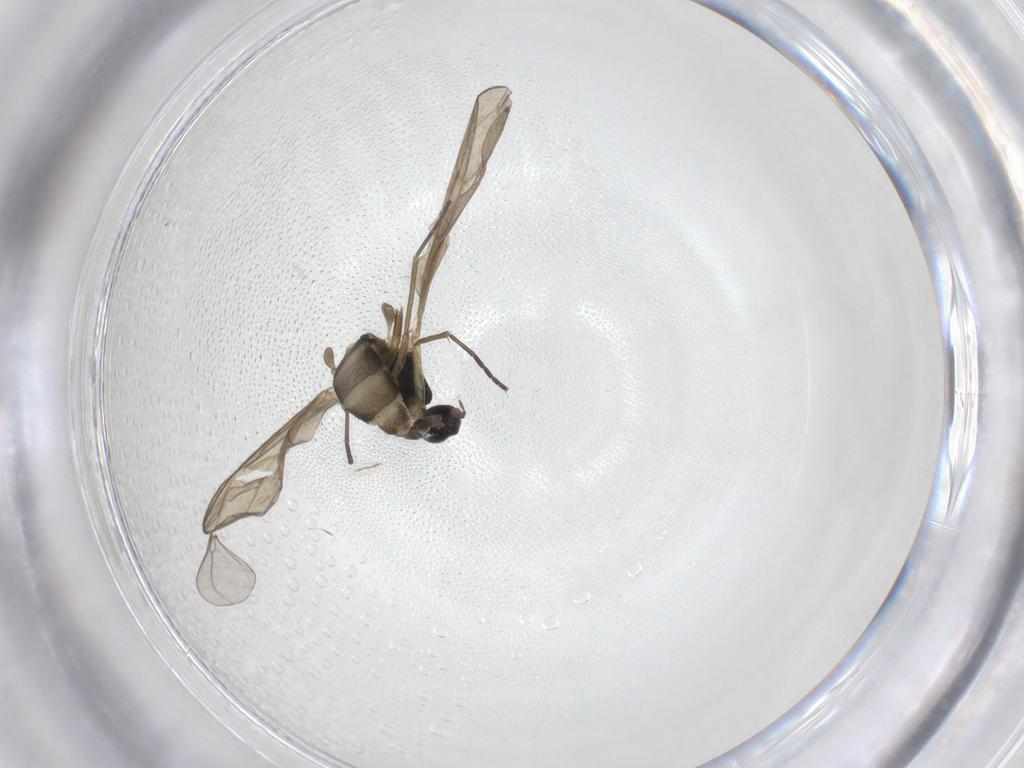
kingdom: Animalia
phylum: Arthropoda
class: Insecta
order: Diptera
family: Cecidomyiidae
